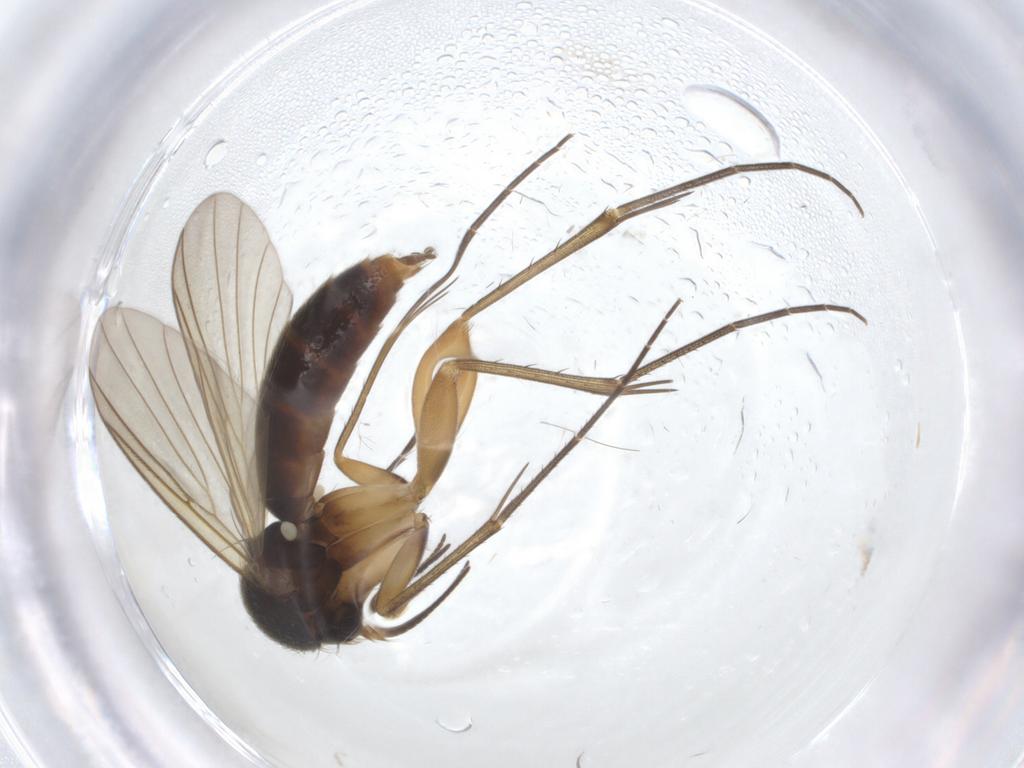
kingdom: Animalia
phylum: Arthropoda
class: Insecta
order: Diptera
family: Mycetophilidae
